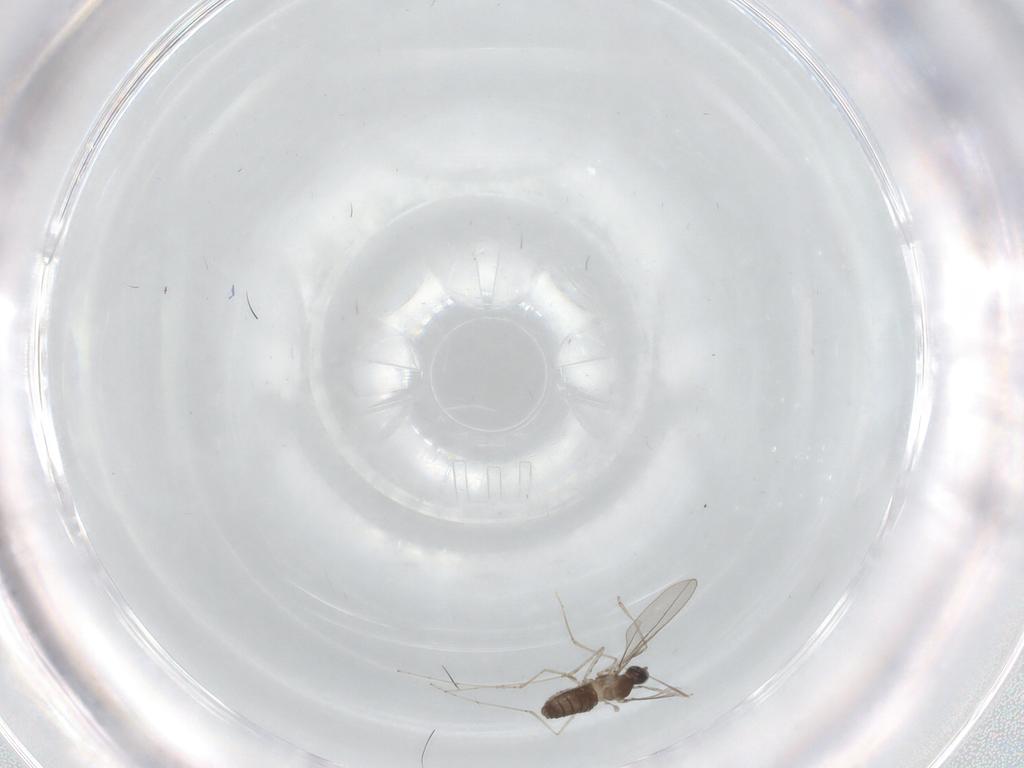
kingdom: Animalia
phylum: Arthropoda
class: Insecta
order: Diptera
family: Cecidomyiidae
